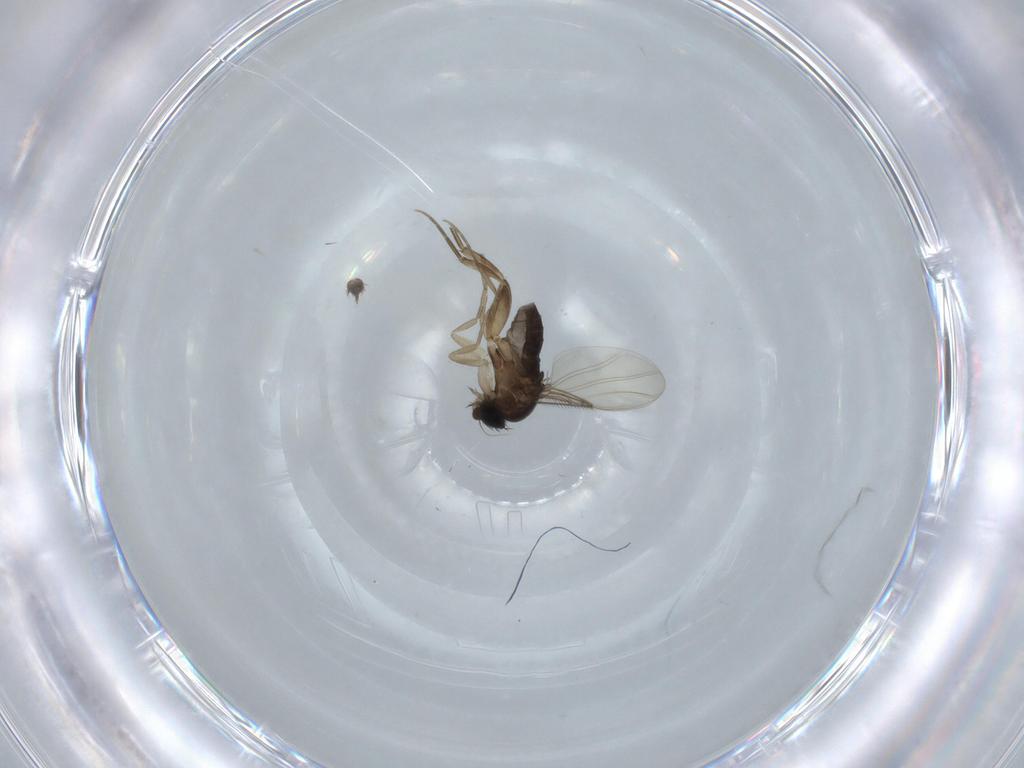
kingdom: Animalia
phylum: Arthropoda
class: Insecta
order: Diptera
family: Phoridae
